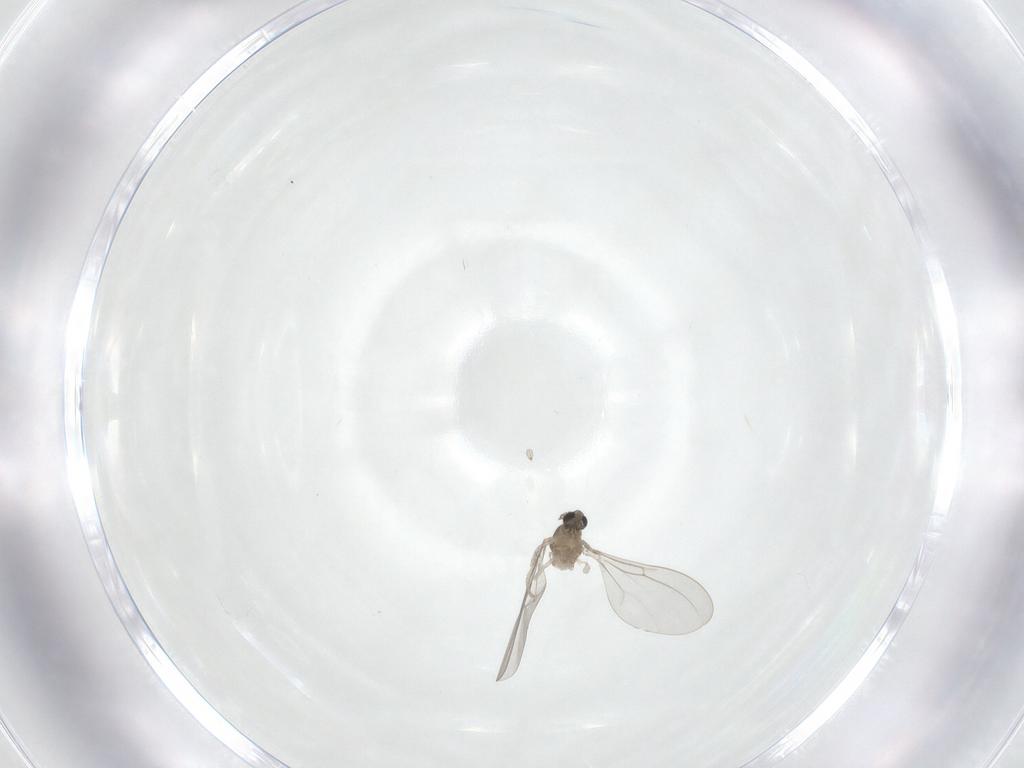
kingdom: Animalia
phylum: Arthropoda
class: Insecta
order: Diptera
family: Cecidomyiidae
